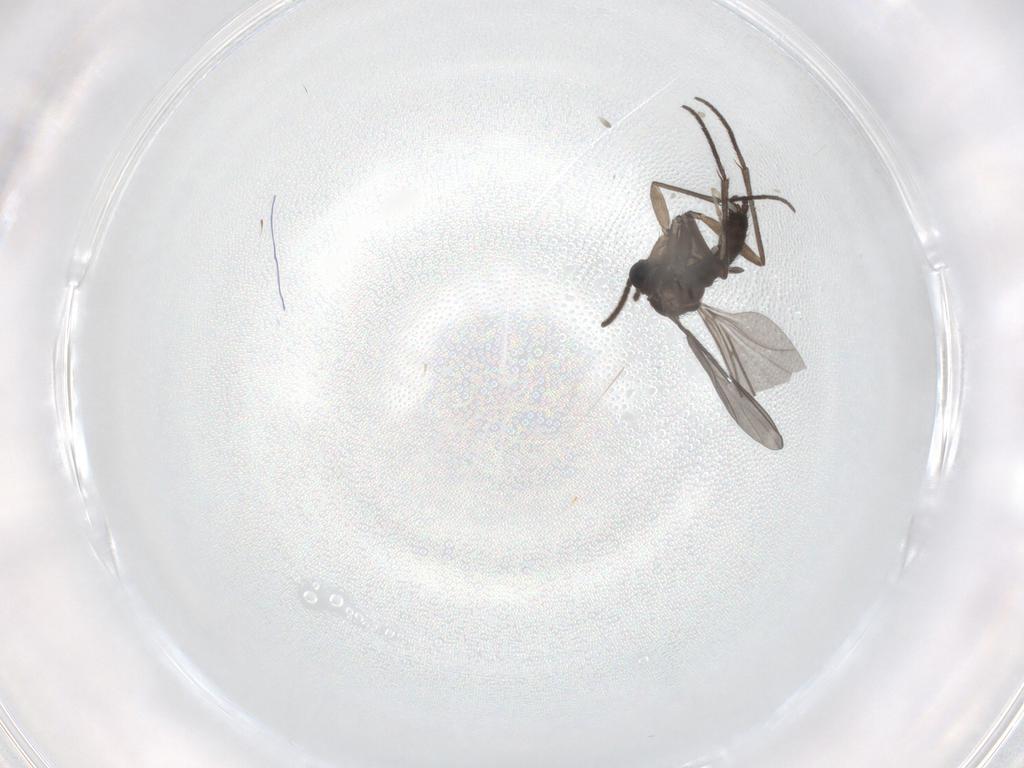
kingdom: Animalia
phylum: Arthropoda
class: Insecta
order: Diptera
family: Sciaridae
